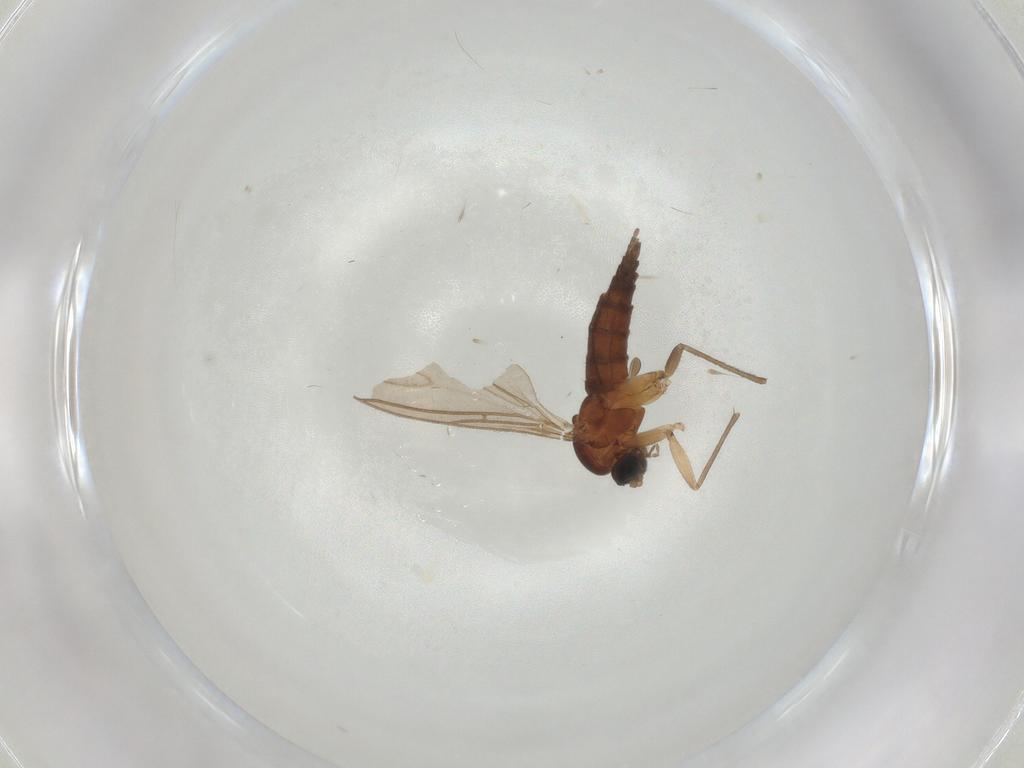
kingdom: Animalia
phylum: Arthropoda
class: Insecta
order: Diptera
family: Sciaridae
